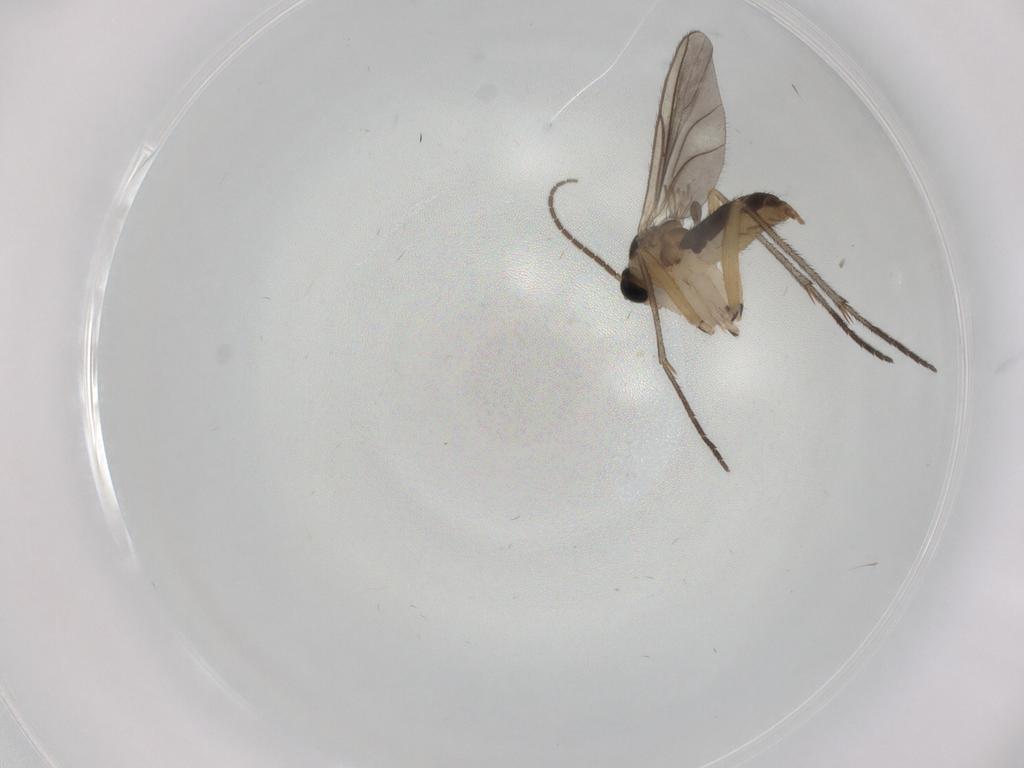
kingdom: Animalia
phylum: Arthropoda
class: Insecta
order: Diptera
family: Sciaridae
